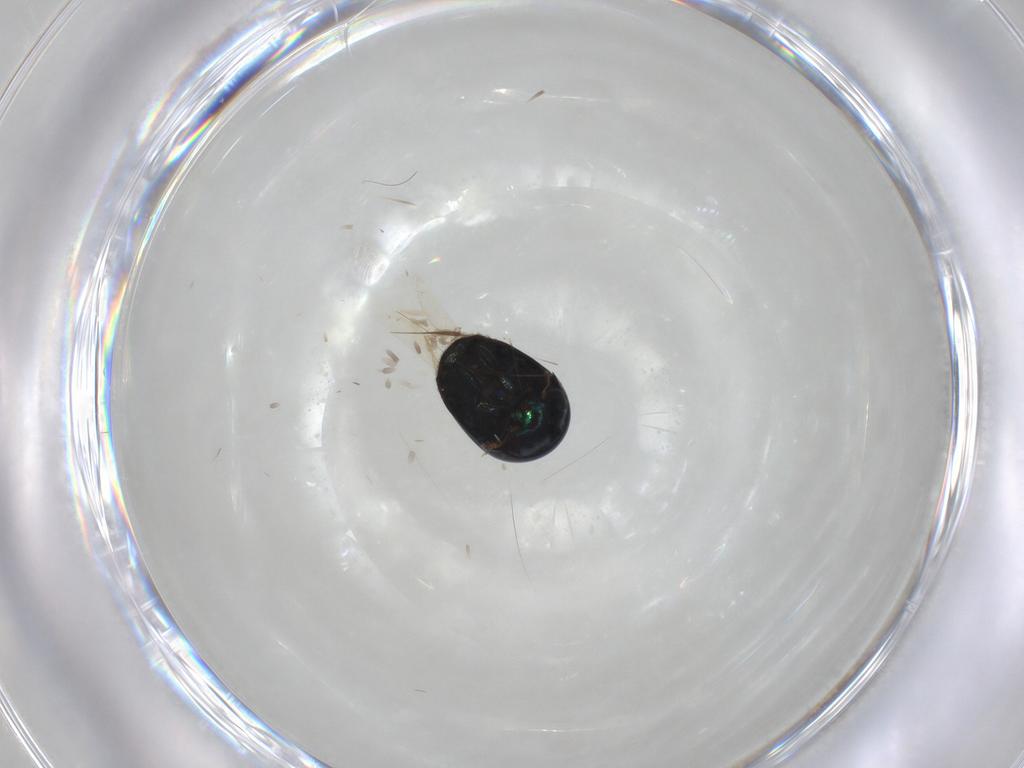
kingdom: Animalia
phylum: Arthropoda
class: Insecta
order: Coleoptera
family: Cybocephalidae
